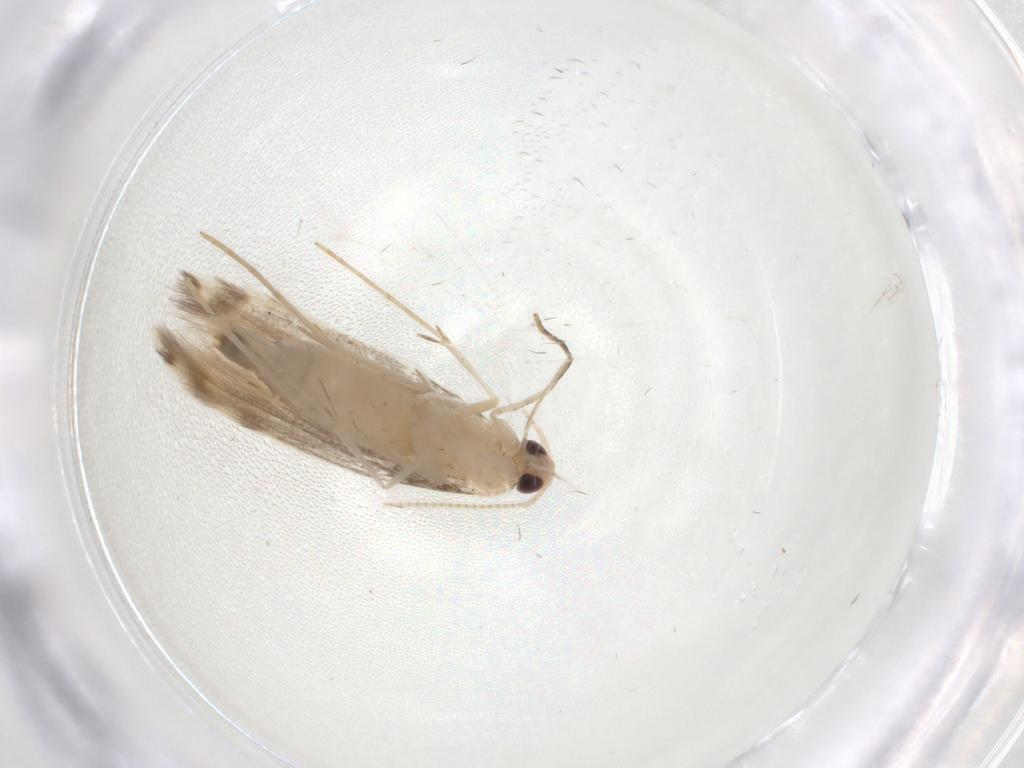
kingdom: Animalia
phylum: Arthropoda
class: Insecta
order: Lepidoptera
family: Gracillariidae
